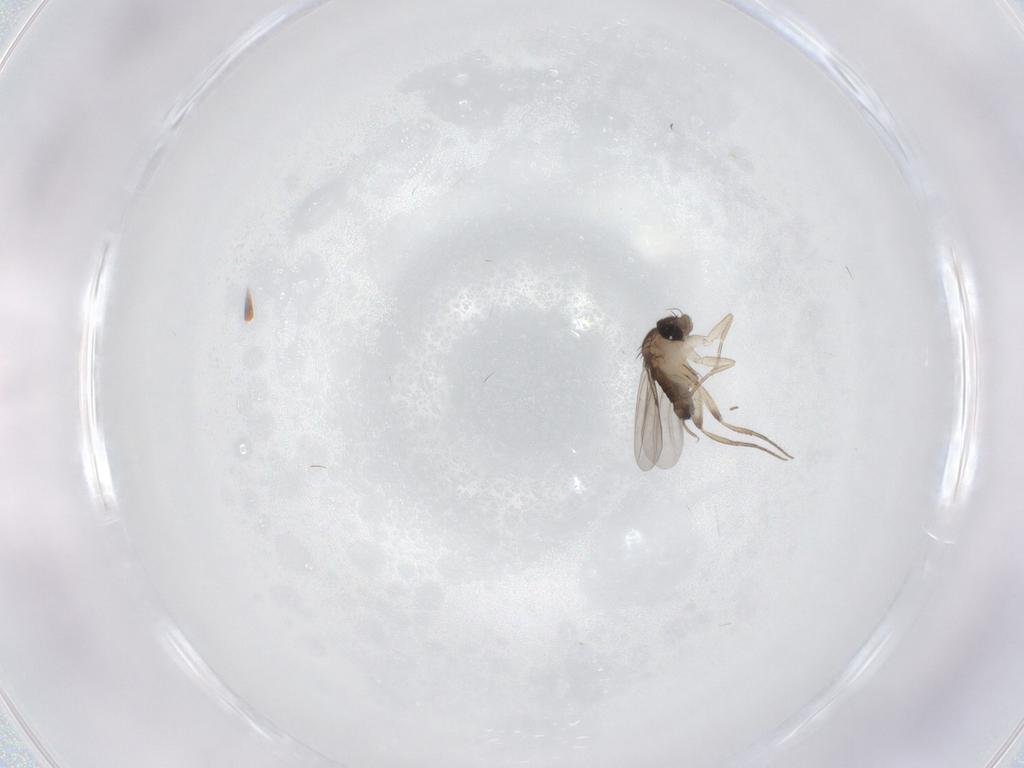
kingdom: Animalia
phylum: Arthropoda
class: Insecta
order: Diptera
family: Phoridae
